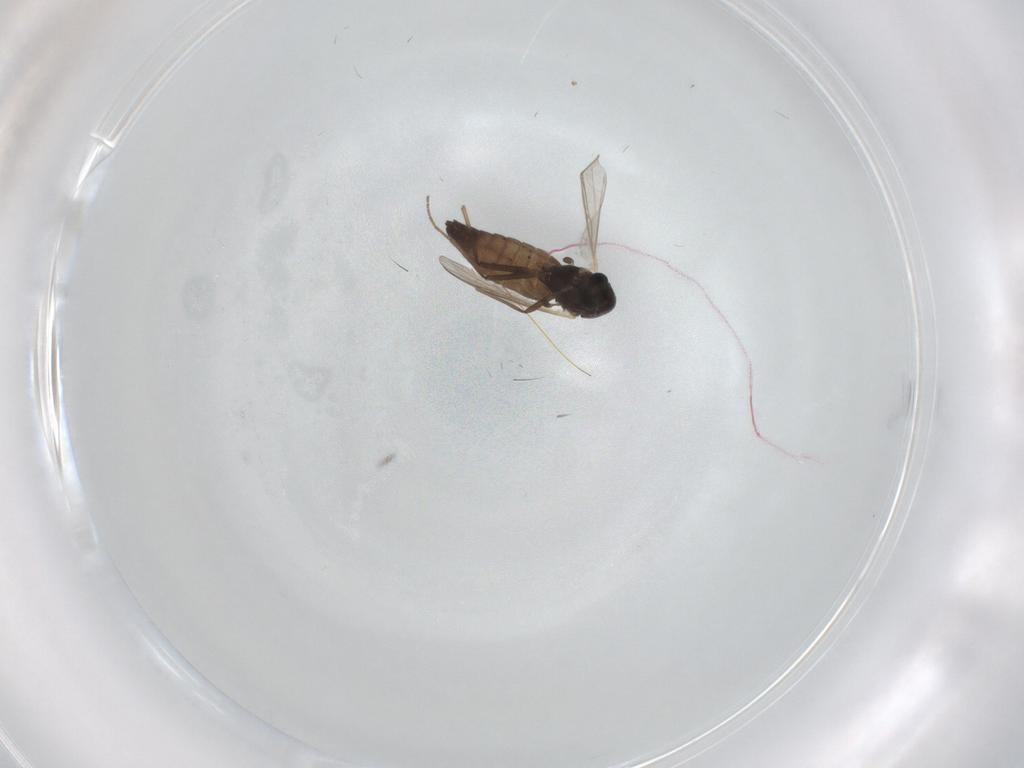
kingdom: Animalia
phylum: Arthropoda
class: Insecta
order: Diptera
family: Chironomidae
